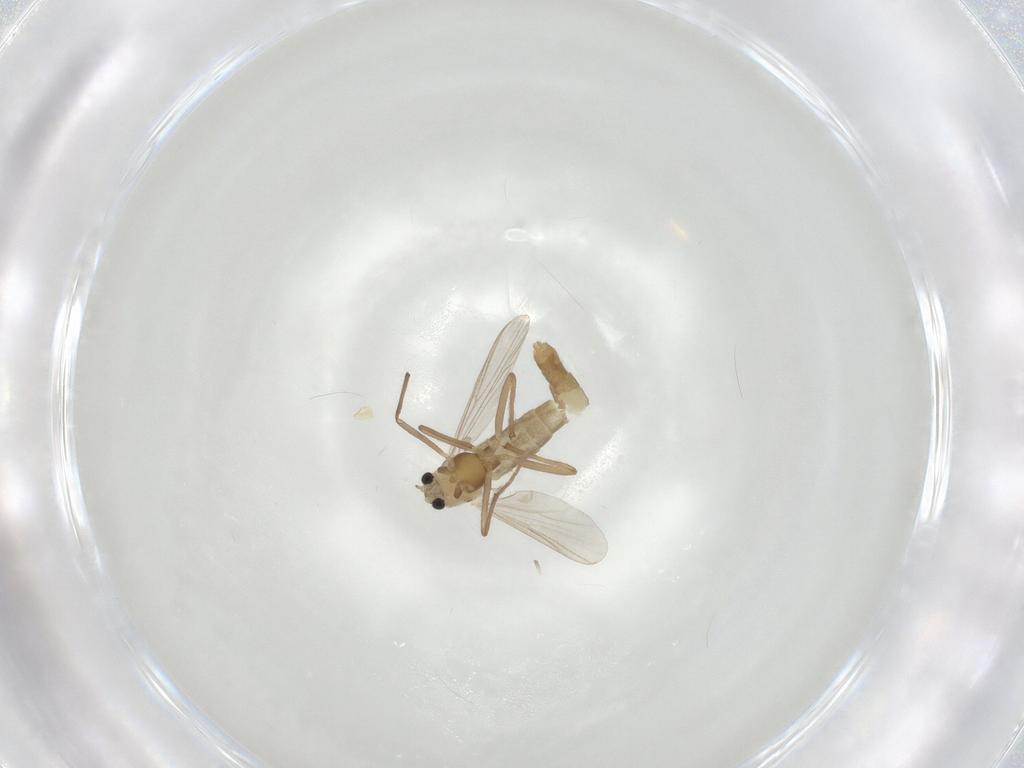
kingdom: Animalia
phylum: Arthropoda
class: Insecta
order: Diptera
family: Chironomidae
